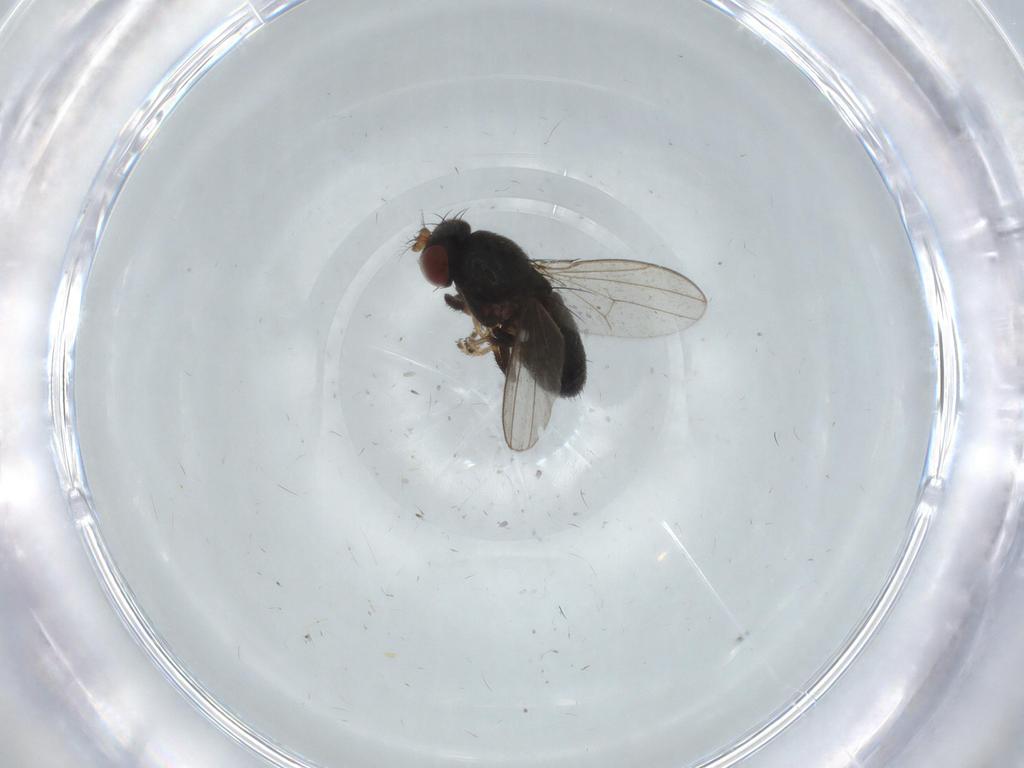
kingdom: Animalia
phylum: Arthropoda
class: Insecta
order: Diptera
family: Ephydridae
